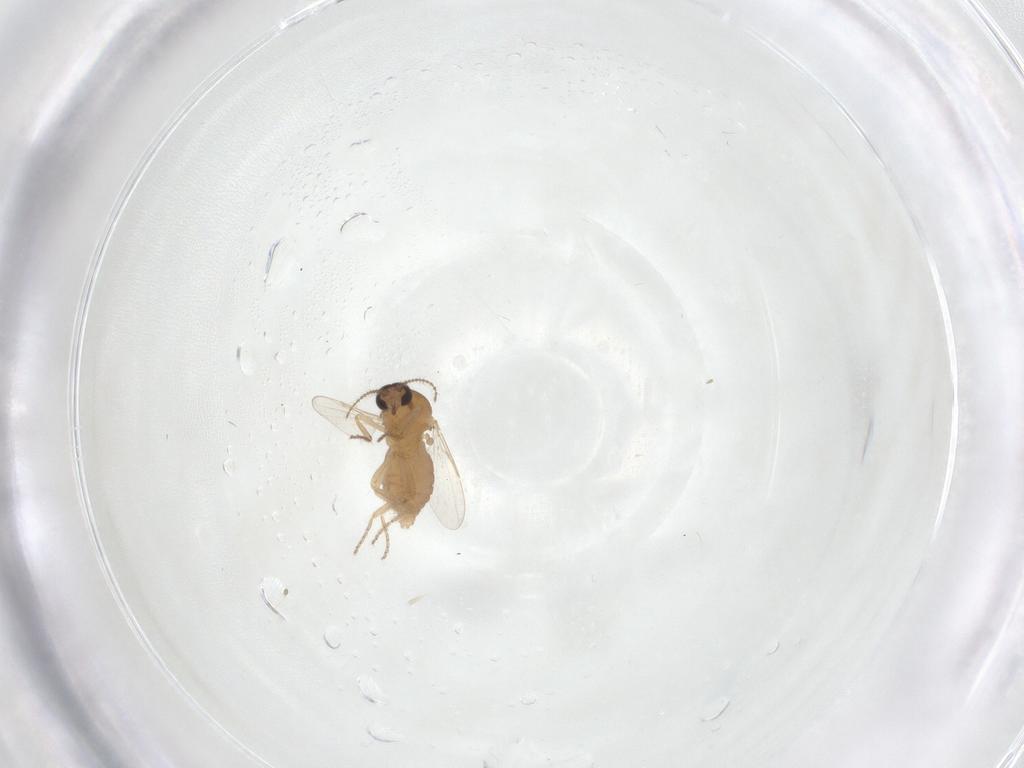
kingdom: Animalia
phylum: Arthropoda
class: Insecta
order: Diptera
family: Ceratopogonidae
